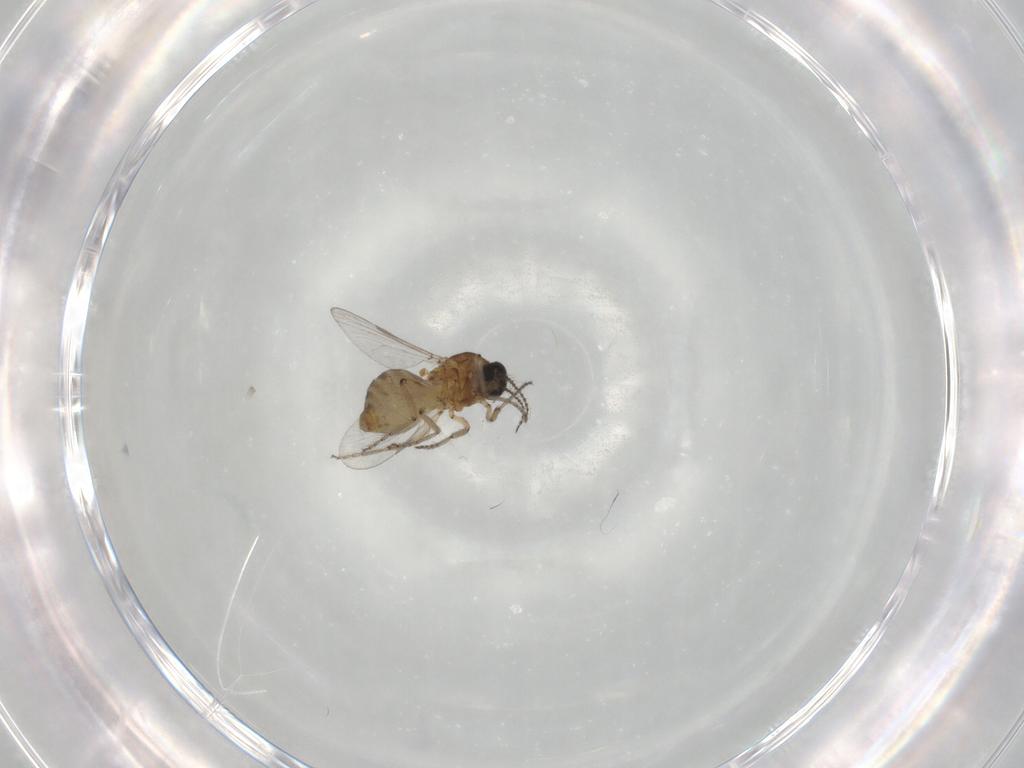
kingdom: Animalia
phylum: Arthropoda
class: Insecta
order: Diptera
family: Ceratopogonidae
